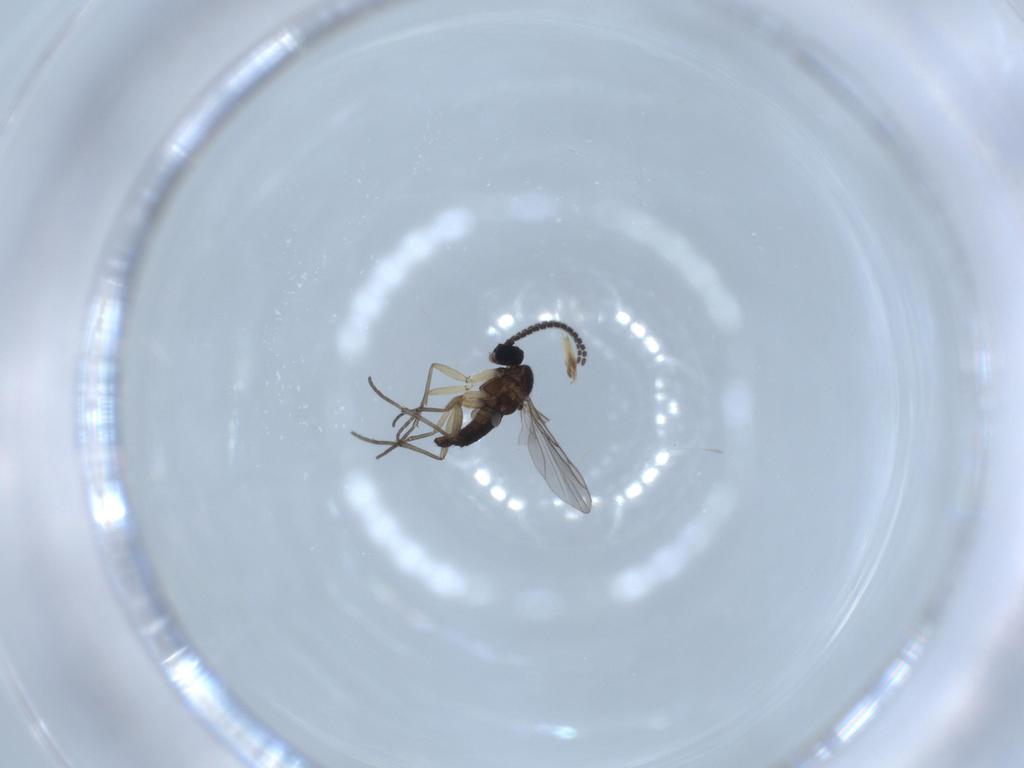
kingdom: Animalia
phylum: Arthropoda
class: Insecta
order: Diptera
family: Sciaridae
